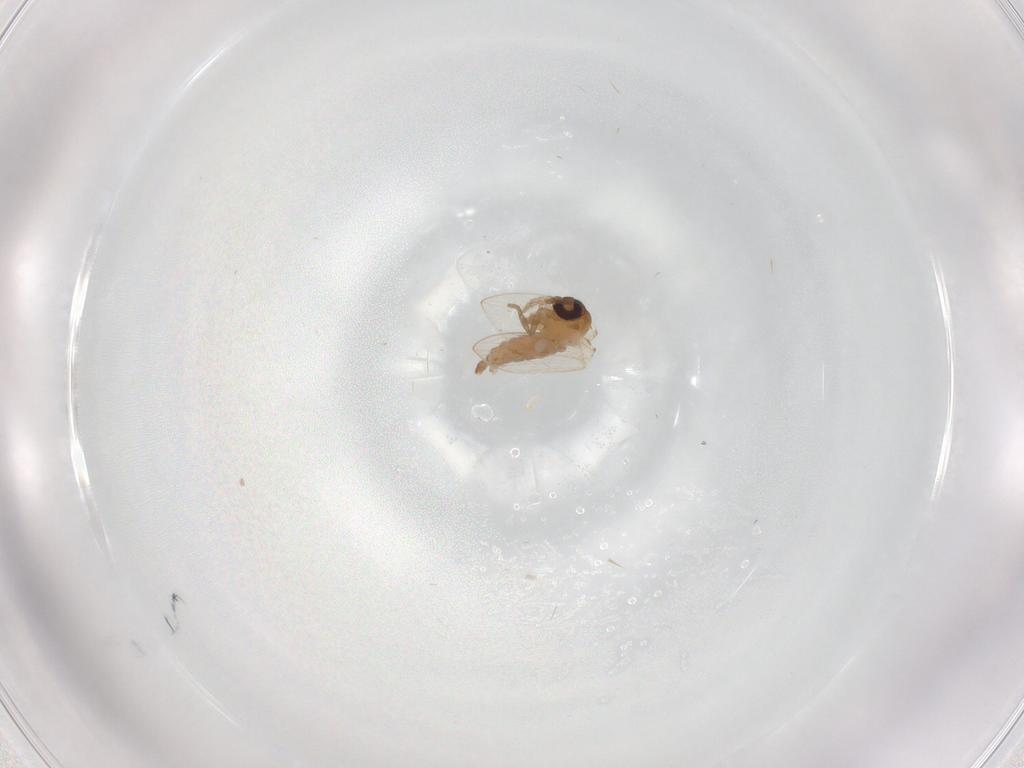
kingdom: Animalia
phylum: Arthropoda
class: Insecta
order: Diptera
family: Psychodidae
